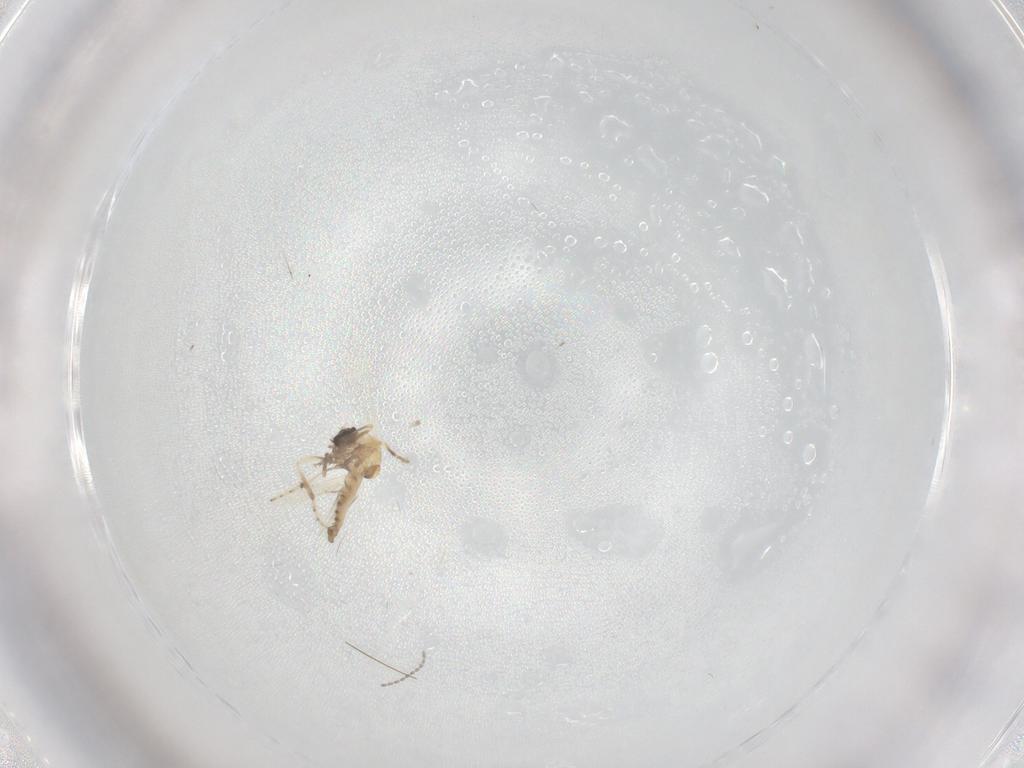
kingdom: Animalia
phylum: Arthropoda
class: Insecta
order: Diptera
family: Cecidomyiidae
